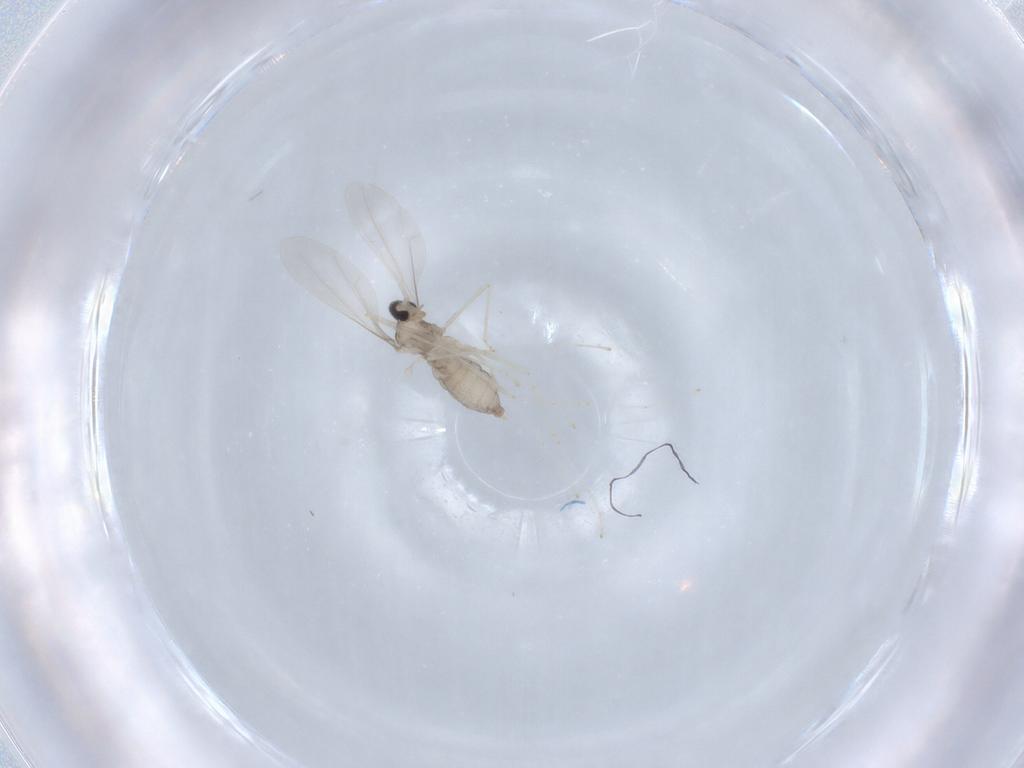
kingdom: Animalia
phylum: Arthropoda
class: Insecta
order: Diptera
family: Cecidomyiidae
